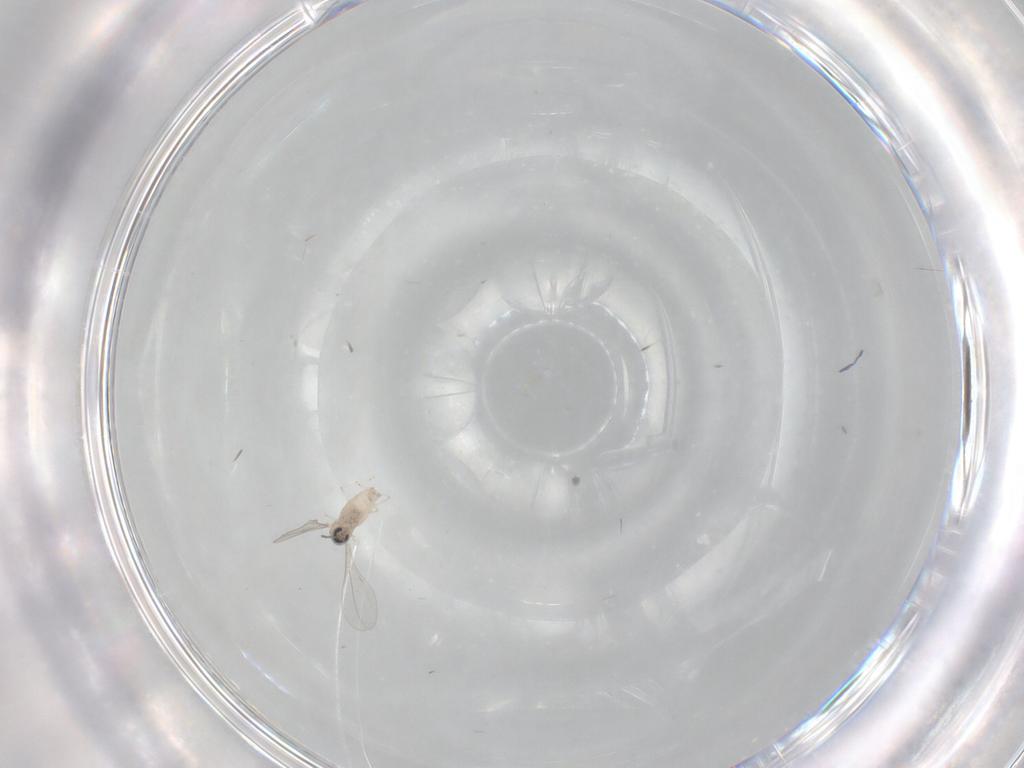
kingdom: Animalia
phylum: Arthropoda
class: Insecta
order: Diptera
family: Cecidomyiidae
